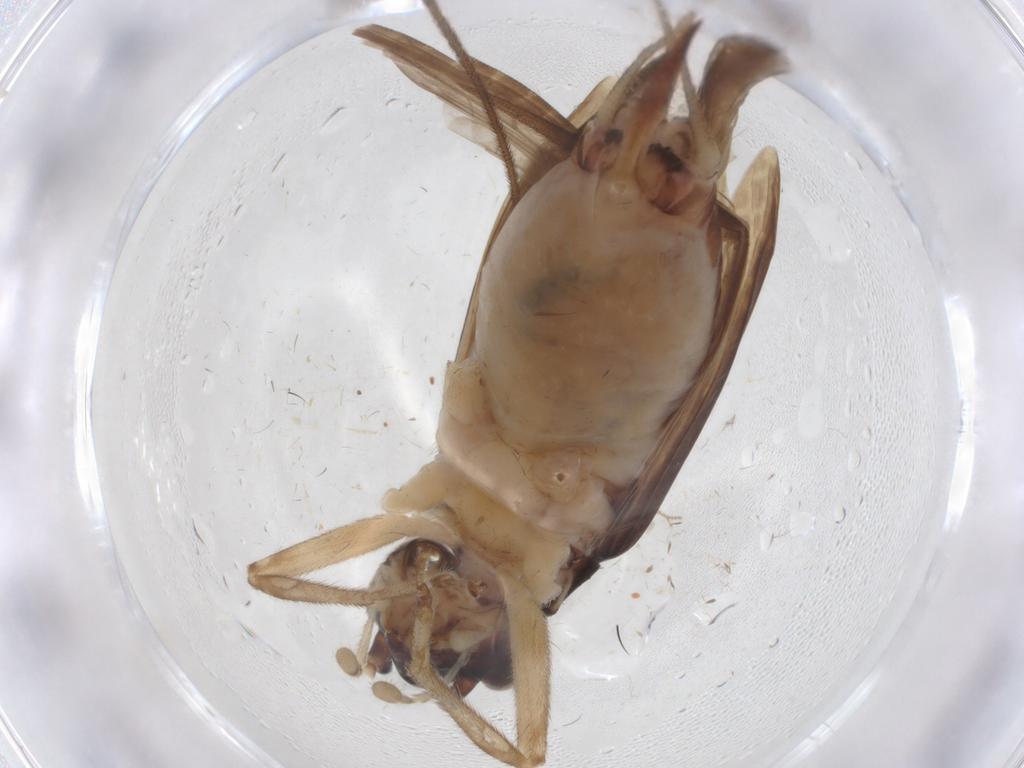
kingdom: Animalia
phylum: Arthropoda
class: Insecta
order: Orthoptera
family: Trigonidiidae
